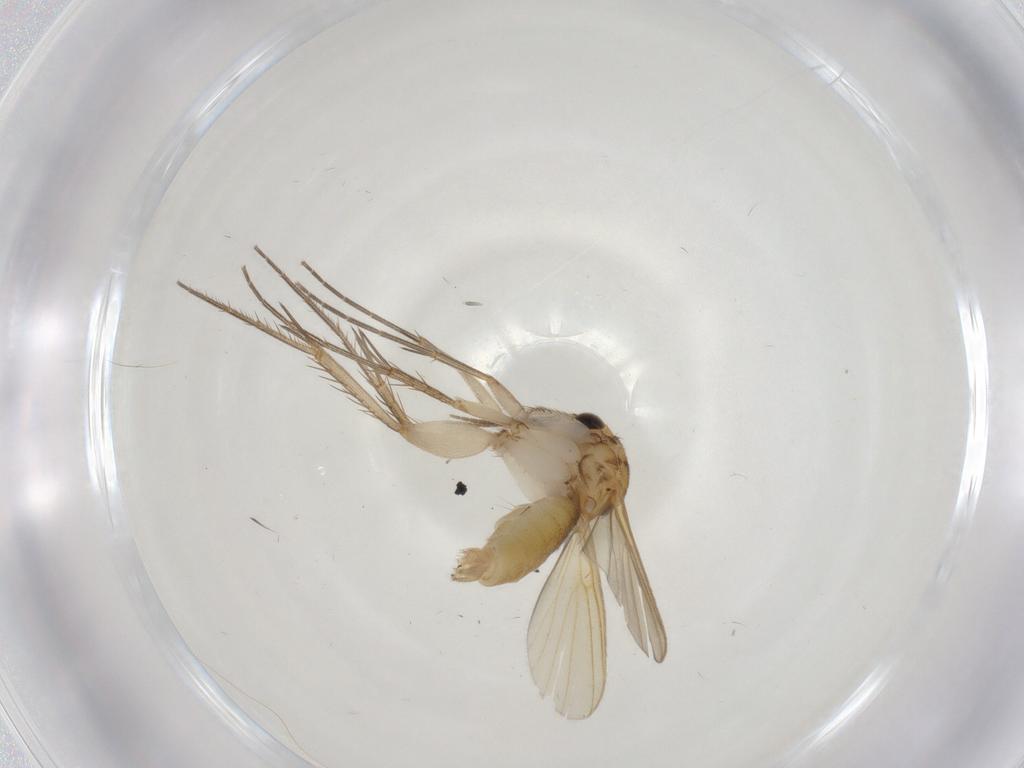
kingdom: Animalia
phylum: Arthropoda
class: Insecta
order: Diptera
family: Mycetophilidae
